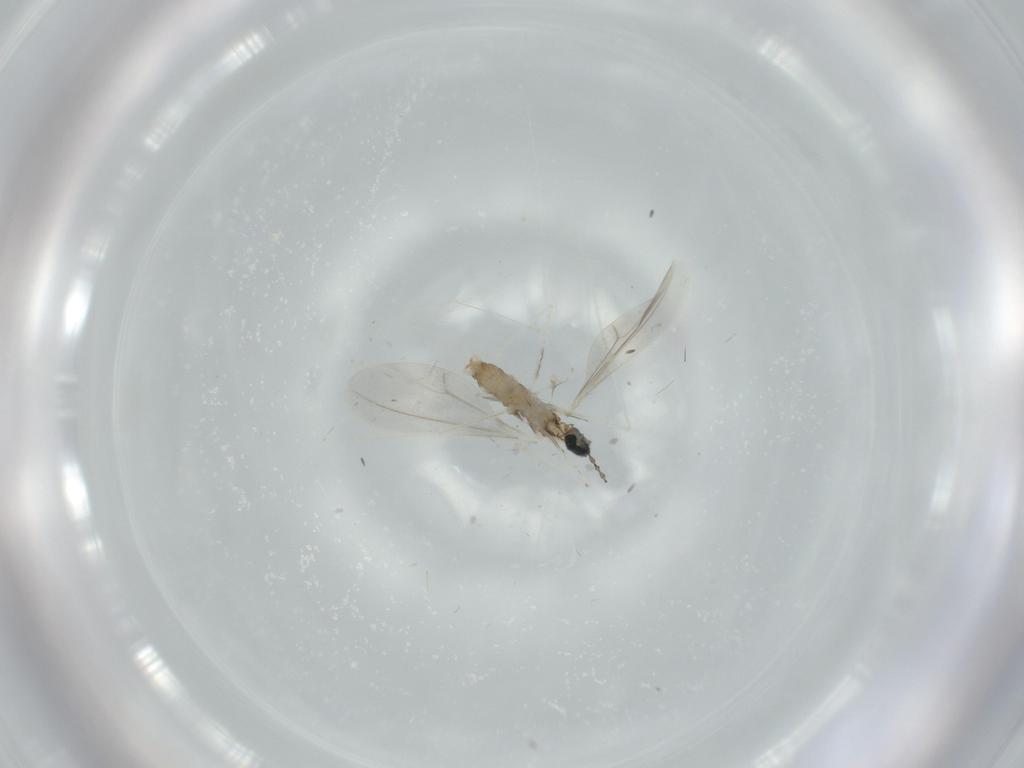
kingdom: Animalia
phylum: Arthropoda
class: Insecta
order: Diptera
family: Cecidomyiidae
